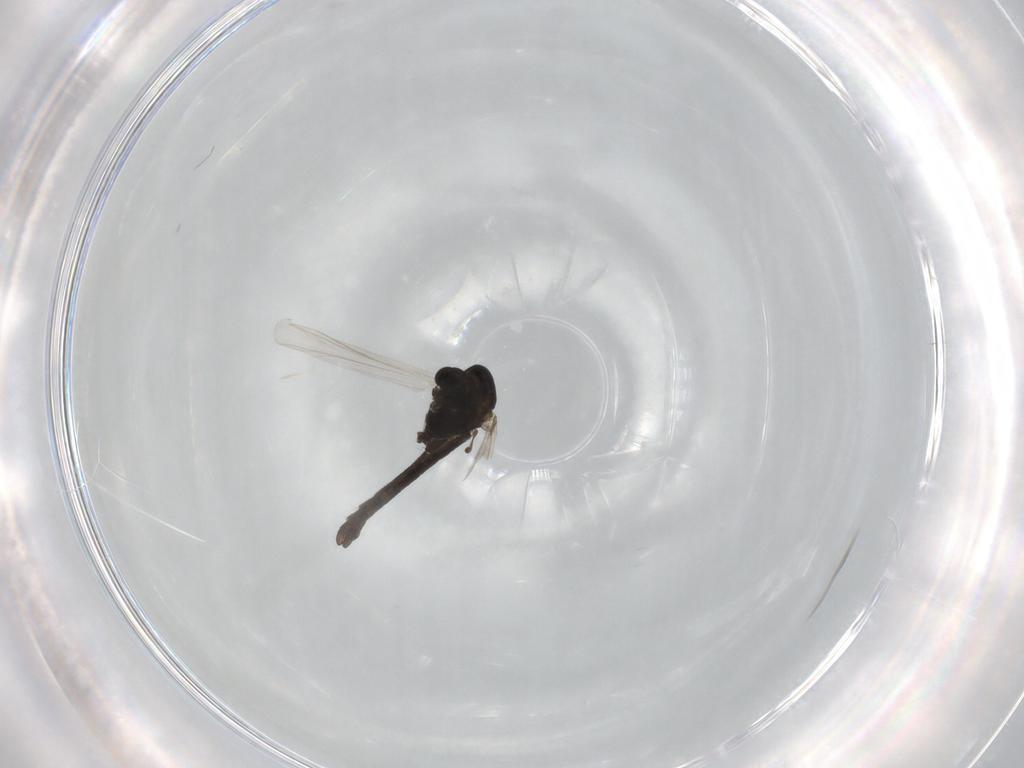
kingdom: Animalia
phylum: Arthropoda
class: Insecta
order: Diptera
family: Chironomidae
